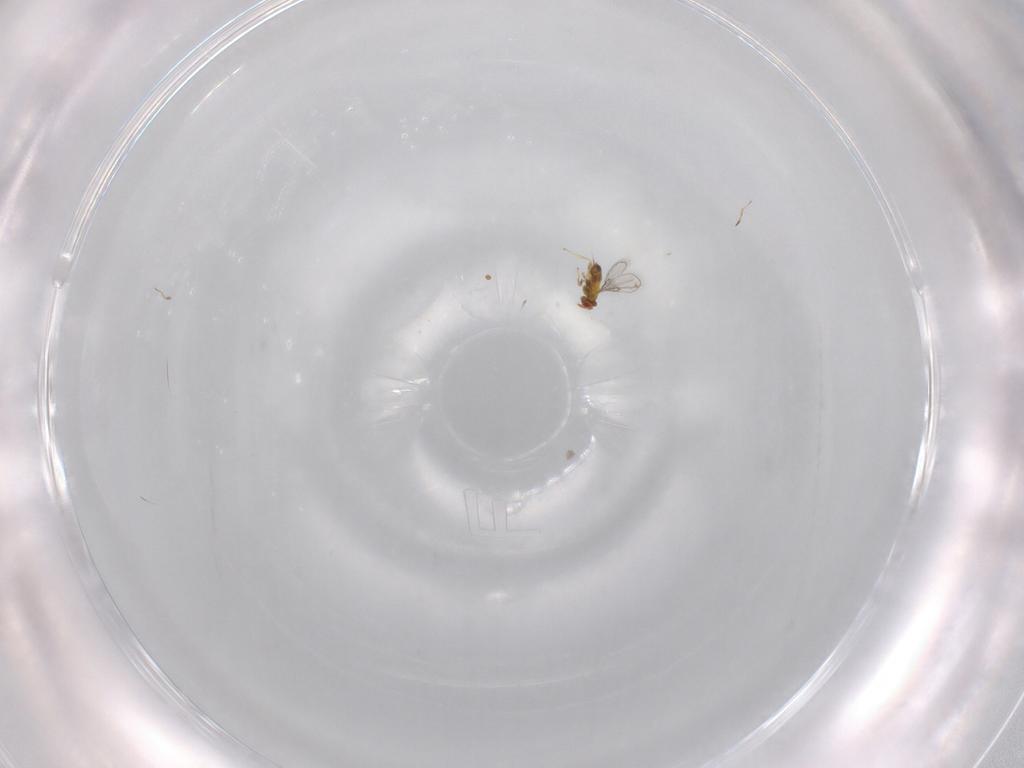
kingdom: Animalia
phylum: Arthropoda
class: Insecta
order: Hymenoptera
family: Trichogrammatidae
